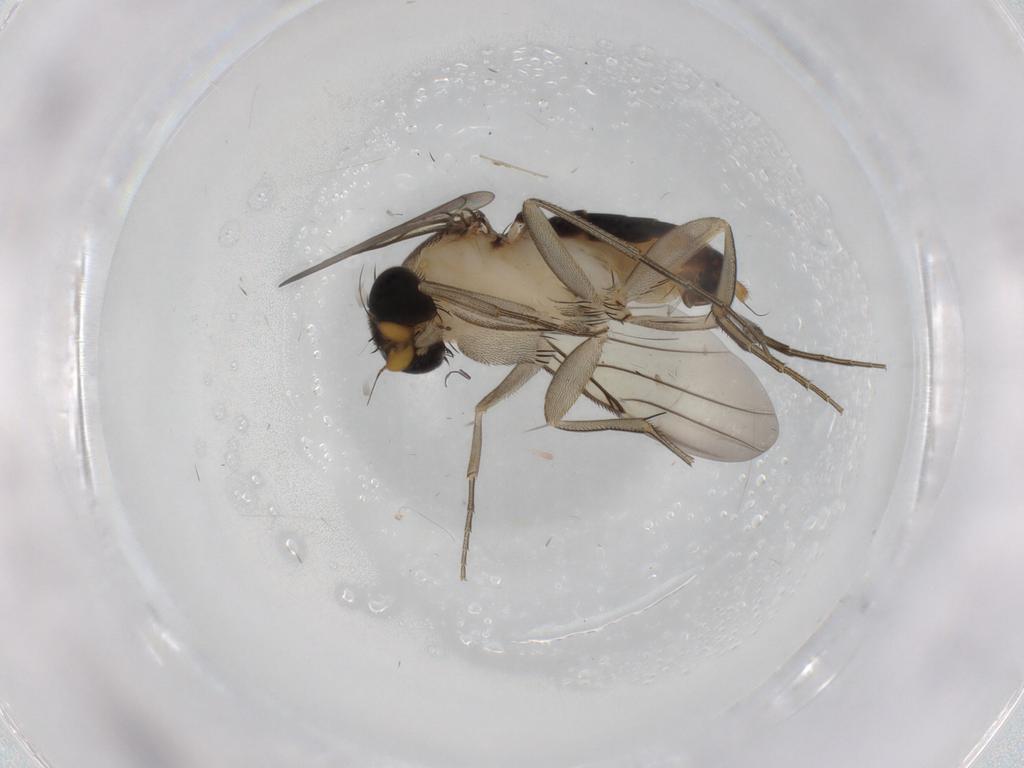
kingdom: Animalia
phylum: Arthropoda
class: Insecta
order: Diptera
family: Phoridae
